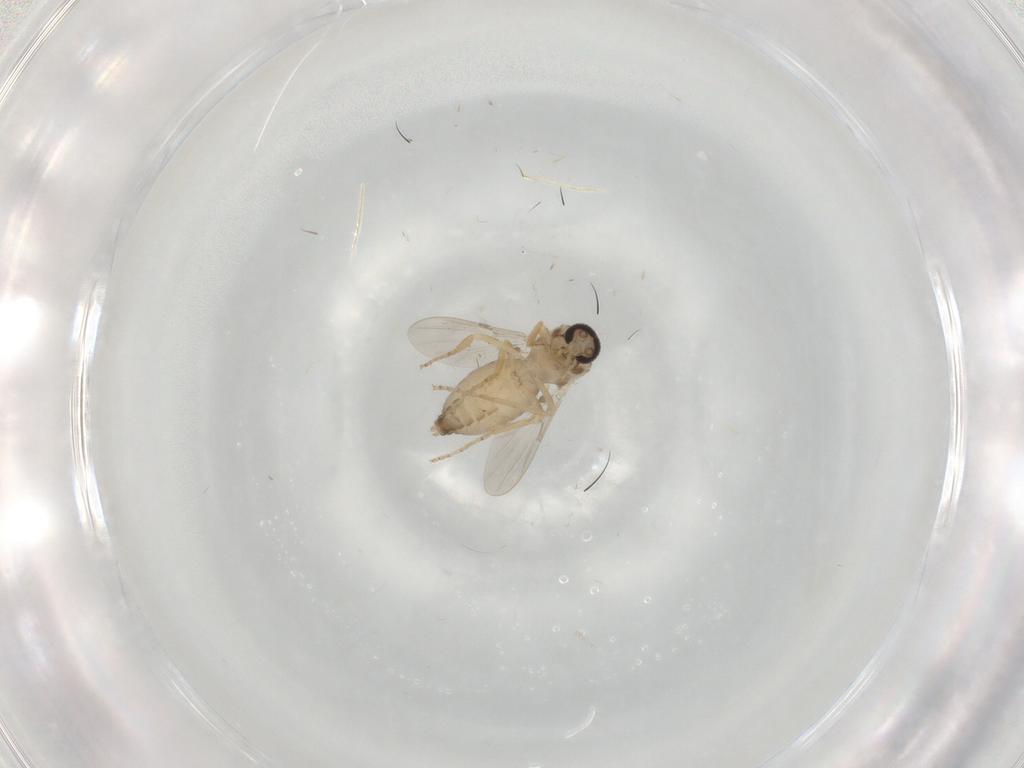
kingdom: Animalia
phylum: Arthropoda
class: Insecta
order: Diptera
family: Ceratopogonidae
